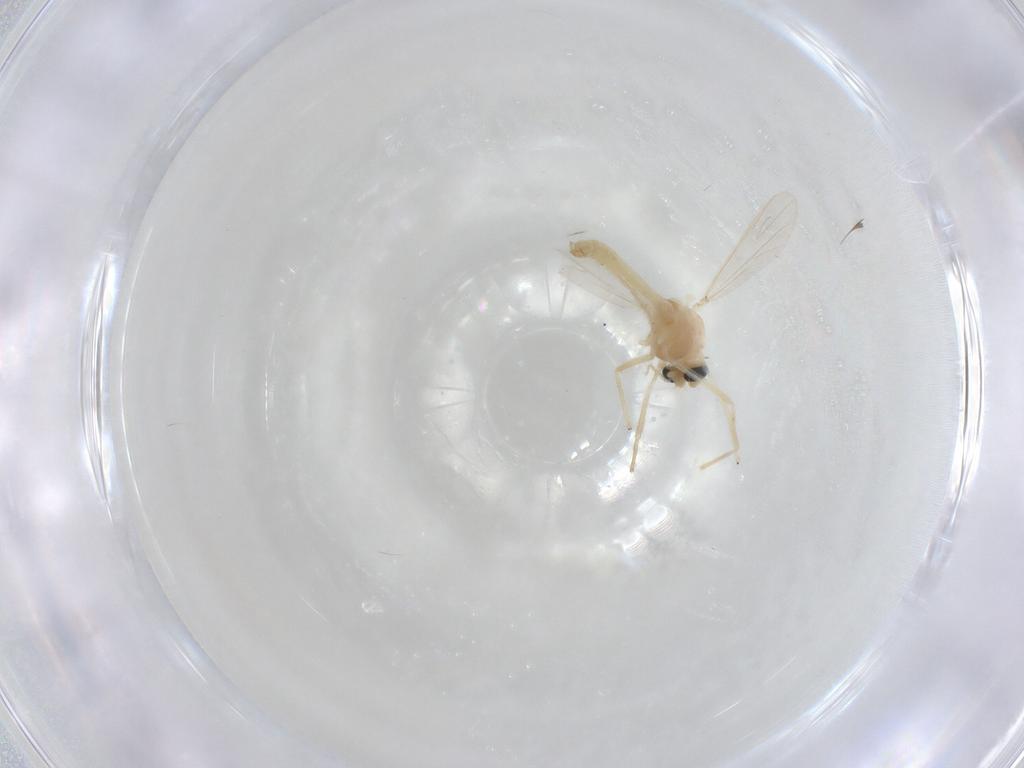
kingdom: Animalia
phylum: Arthropoda
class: Insecta
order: Diptera
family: Chironomidae
